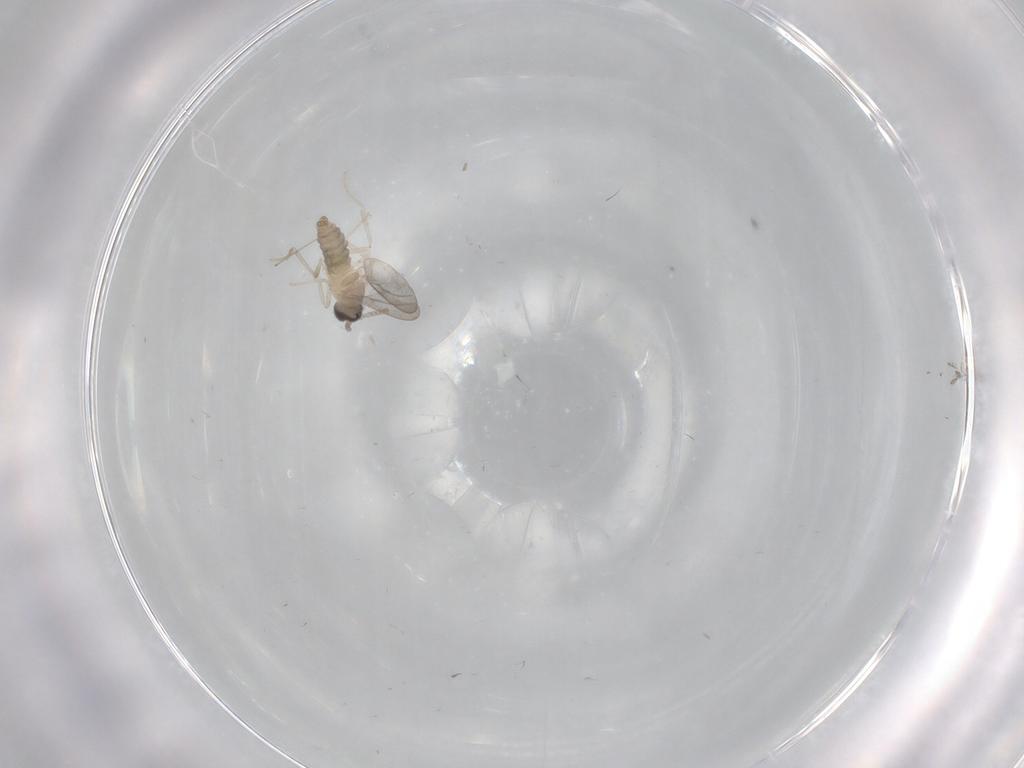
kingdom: Animalia
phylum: Arthropoda
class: Insecta
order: Diptera
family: Cecidomyiidae
